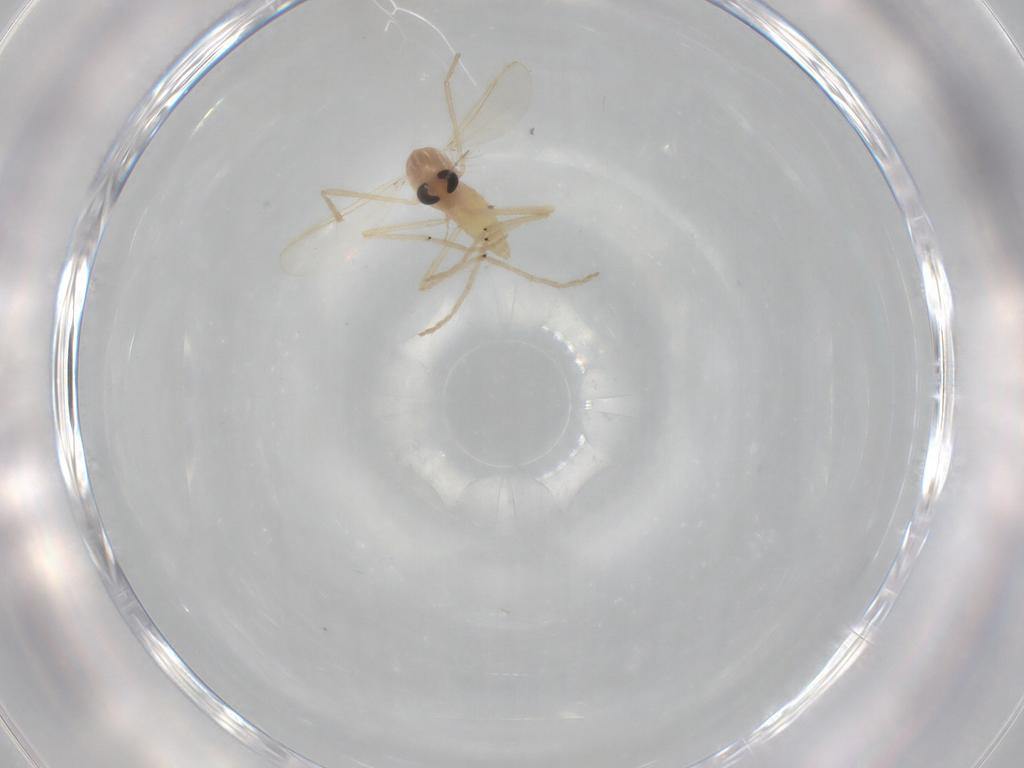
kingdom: Animalia
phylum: Arthropoda
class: Insecta
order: Diptera
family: Chironomidae
